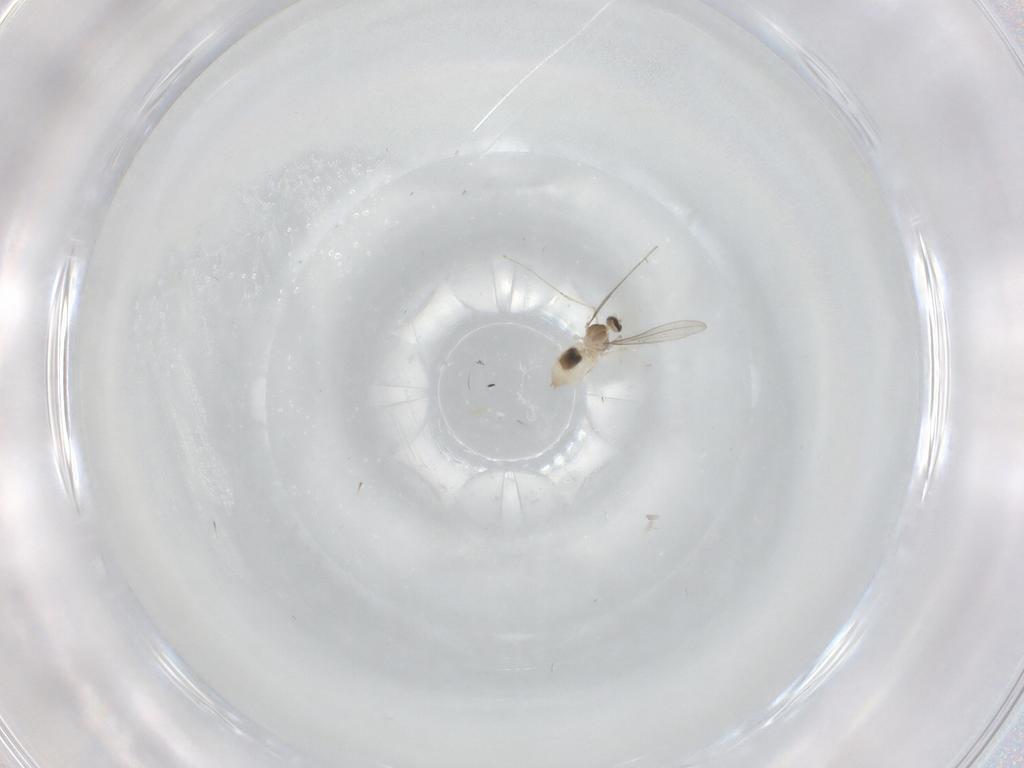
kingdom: Animalia
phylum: Arthropoda
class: Insecta
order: Diptera
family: Cecidomyiidae
